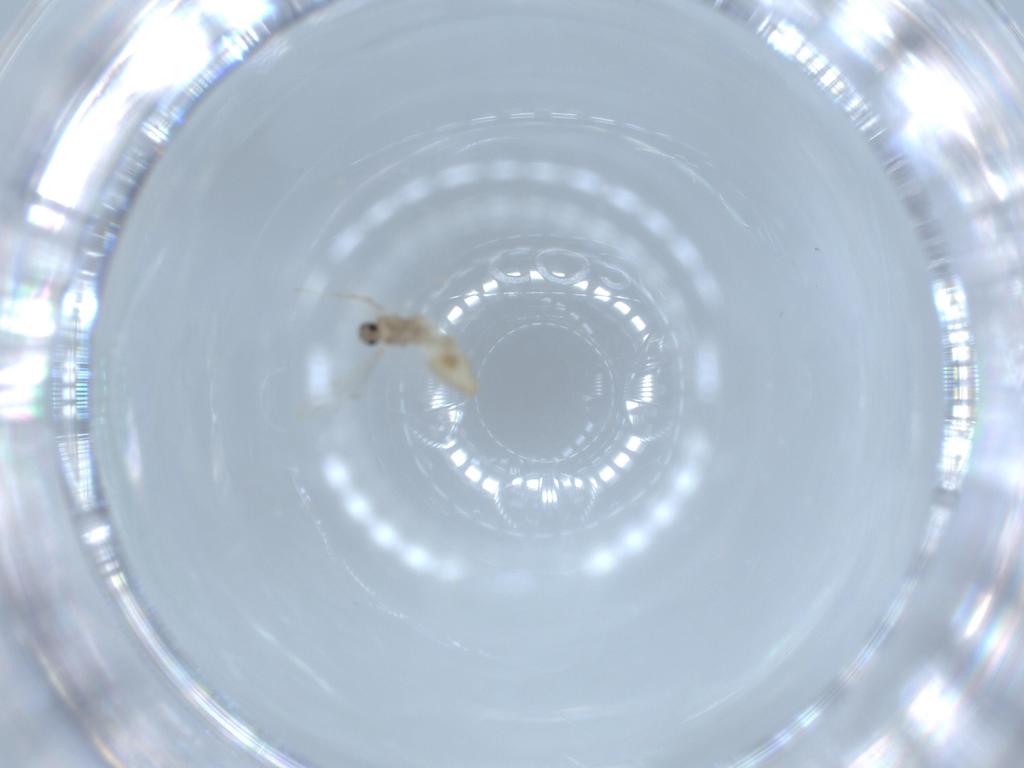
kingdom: Animalia
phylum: Arthropoda
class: Insecta
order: Diptera
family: Cecidomyiidae
